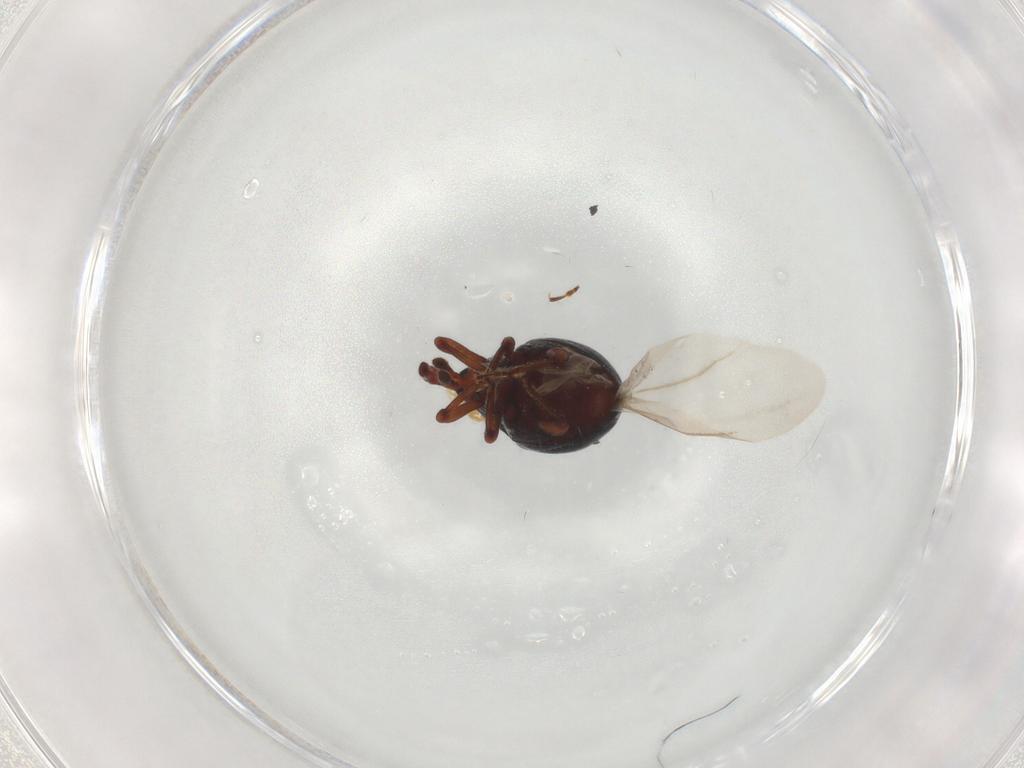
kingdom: Animalia
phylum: Arthropoda
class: Insecta
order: Coleoptera
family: Curculionidae
